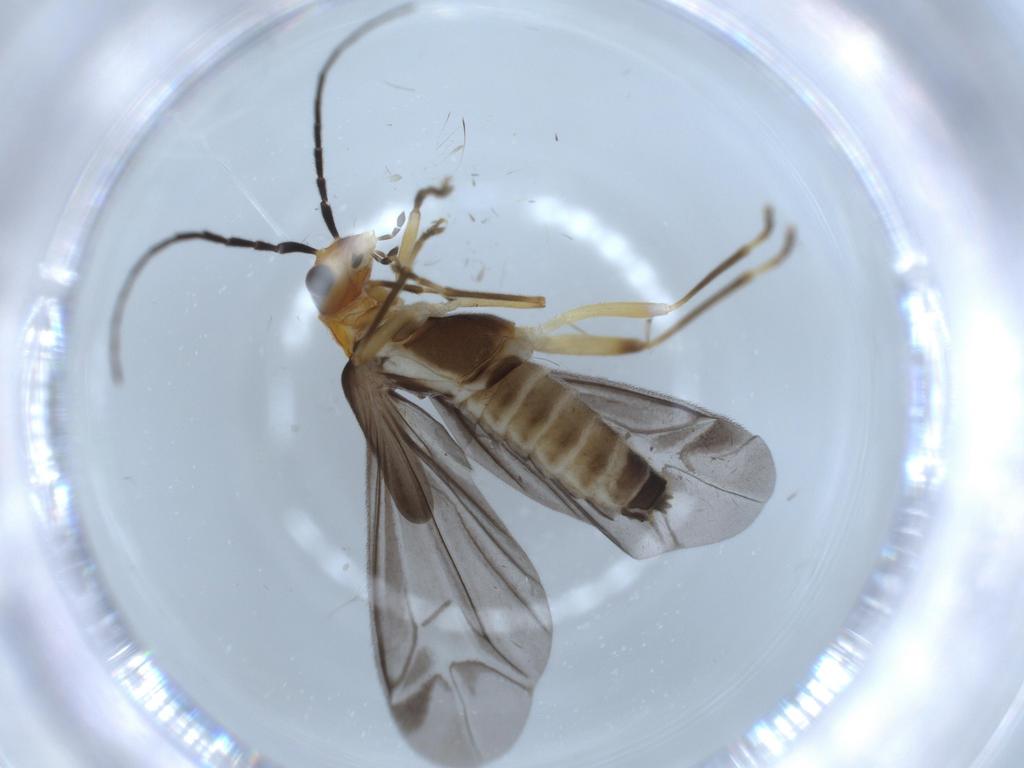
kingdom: Animalia
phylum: Arthropoda
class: Insecta
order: Coleoptera
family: Cantharidae
